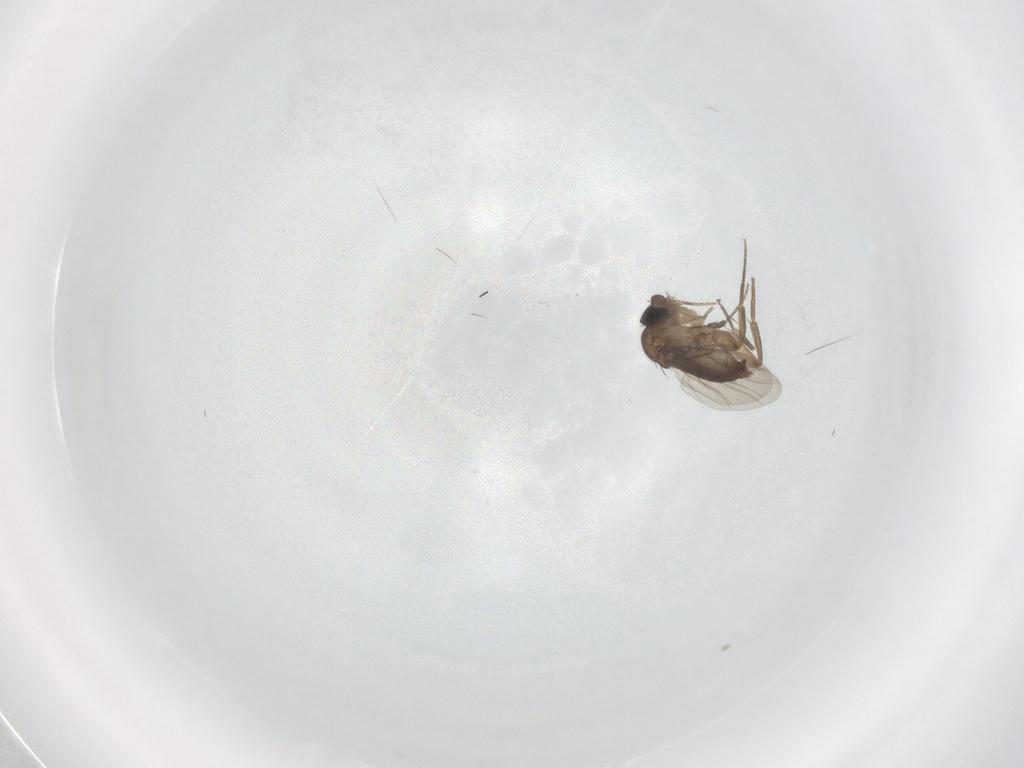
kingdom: Animalia
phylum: Arthropoda
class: Insecta
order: Diptera
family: Phoridae
